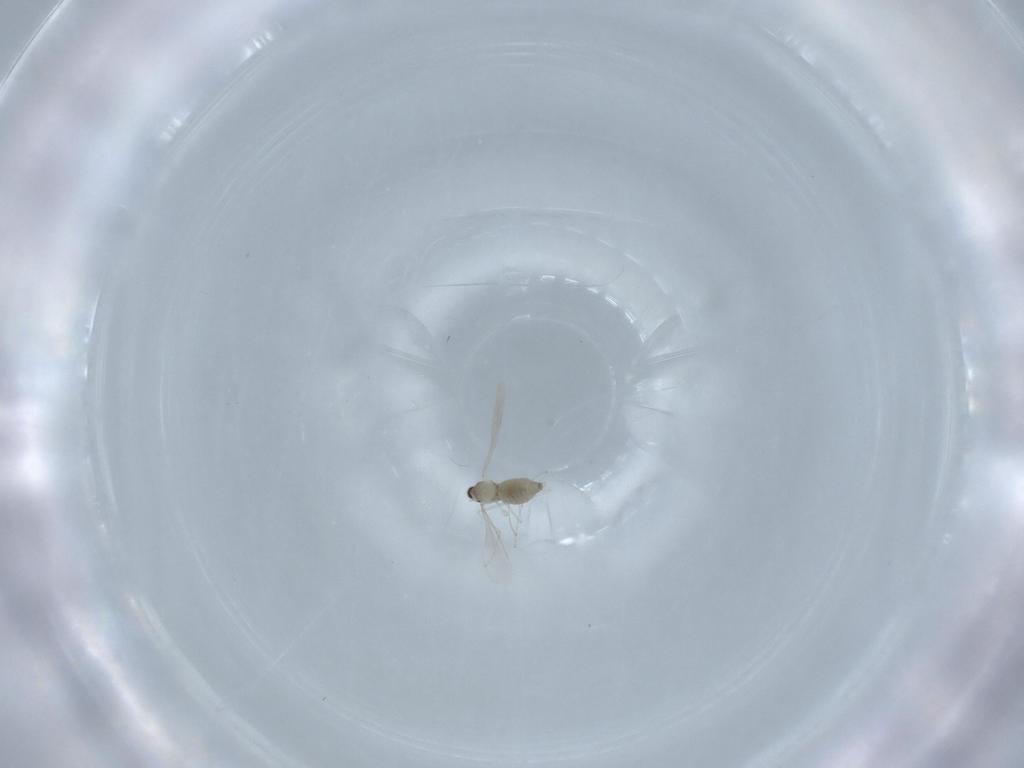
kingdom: Animalia
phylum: Arthropoda
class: Insecta
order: Diptera
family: Cecidomyiidae
